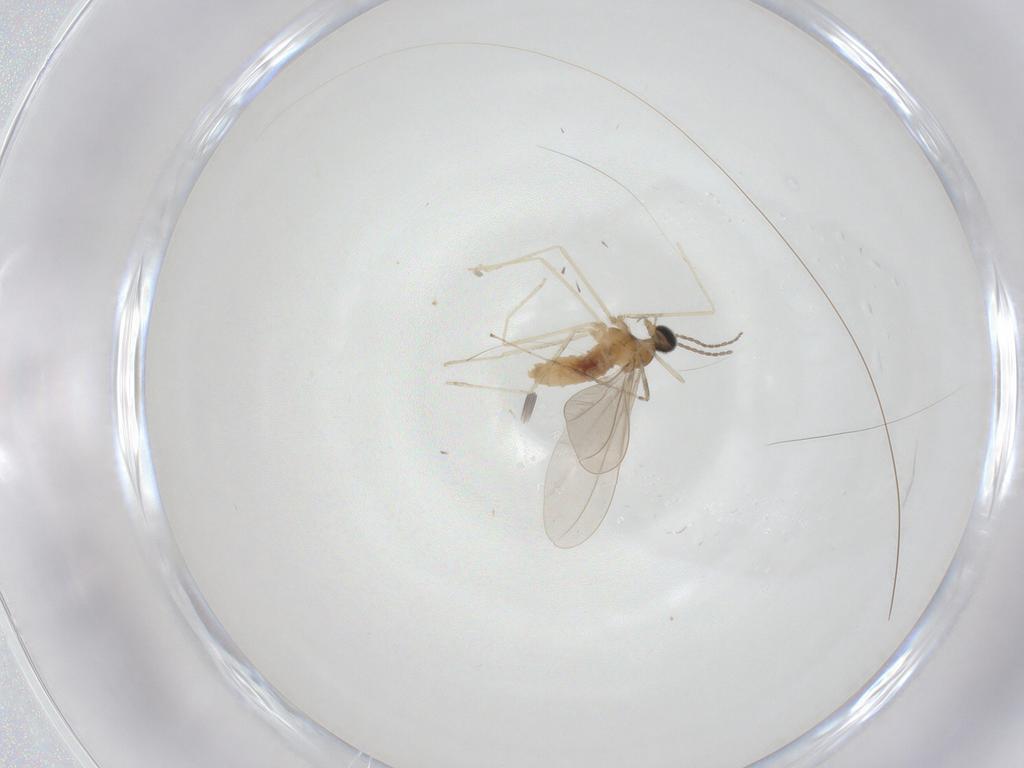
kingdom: Animalia
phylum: Arthropoda
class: Insecta
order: Diptera
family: Cecidomyiidae
